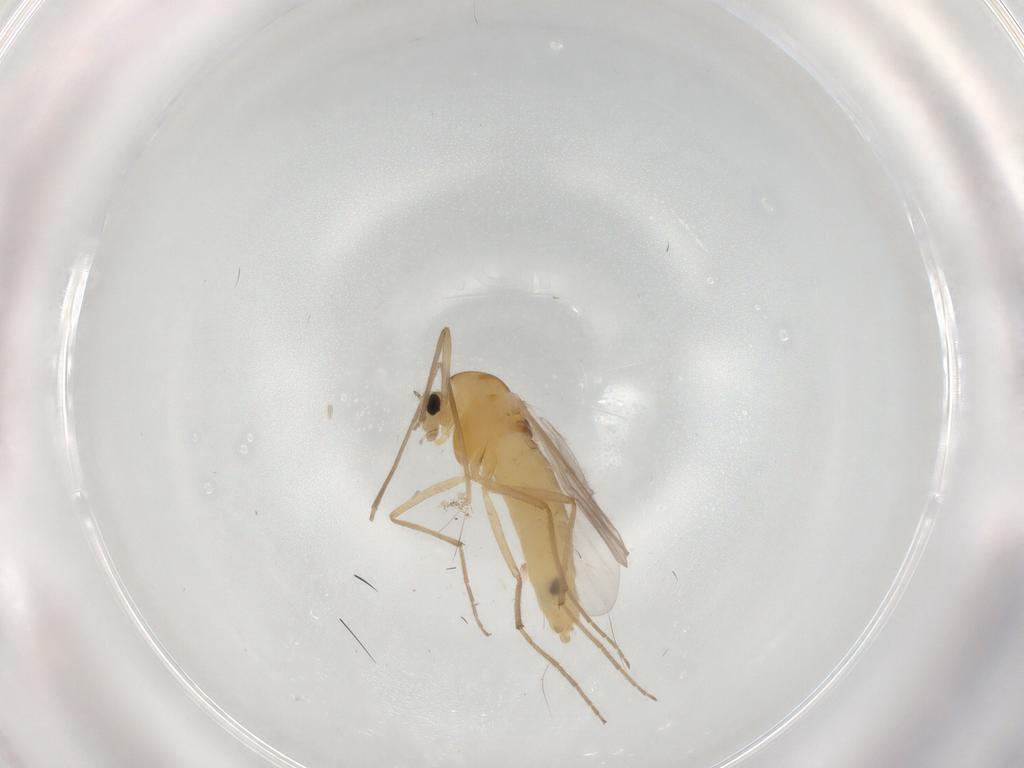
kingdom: Animalia
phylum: Arthropoda
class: Insecta
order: Diptera
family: Chironomidae
